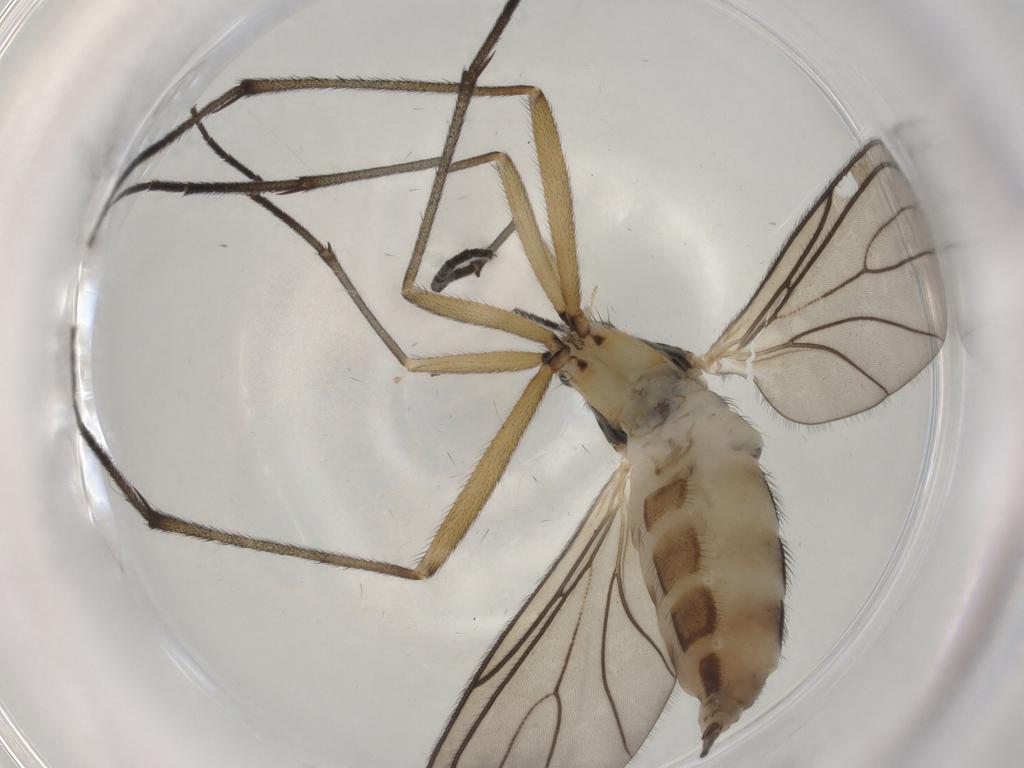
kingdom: Animalia
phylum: Arthropoda
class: Insecta
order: Diptera
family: Sciaridae
